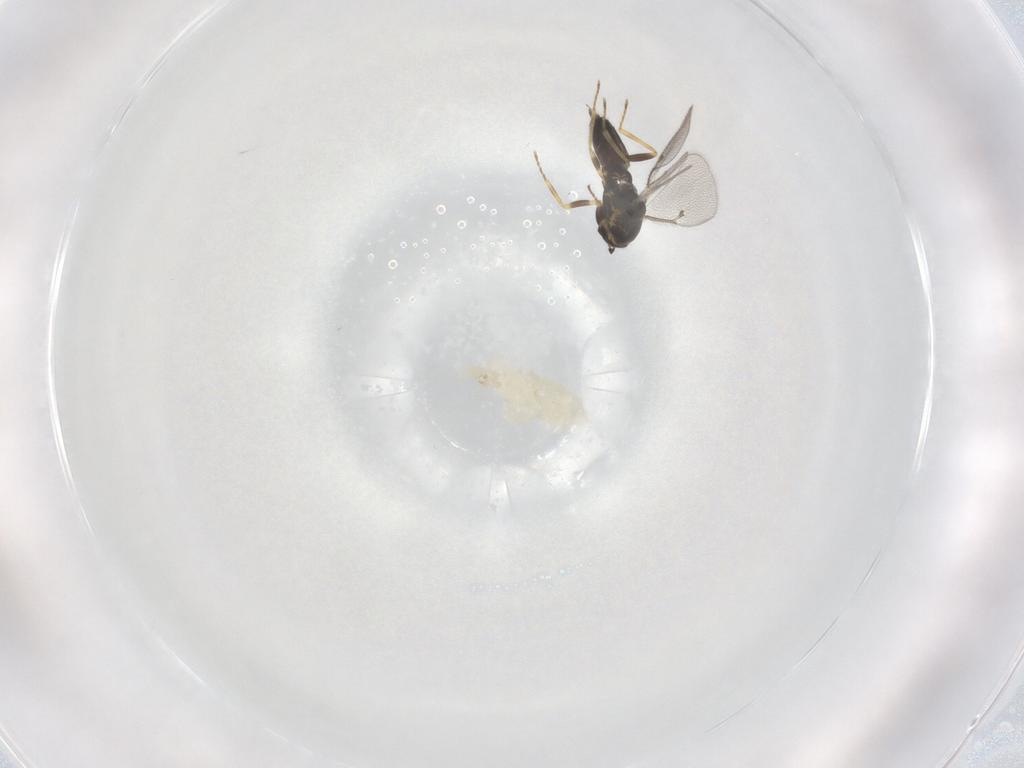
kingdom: Animalia
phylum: Arthropoda
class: Insecta
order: Hymenoptera
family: Eulophidae
